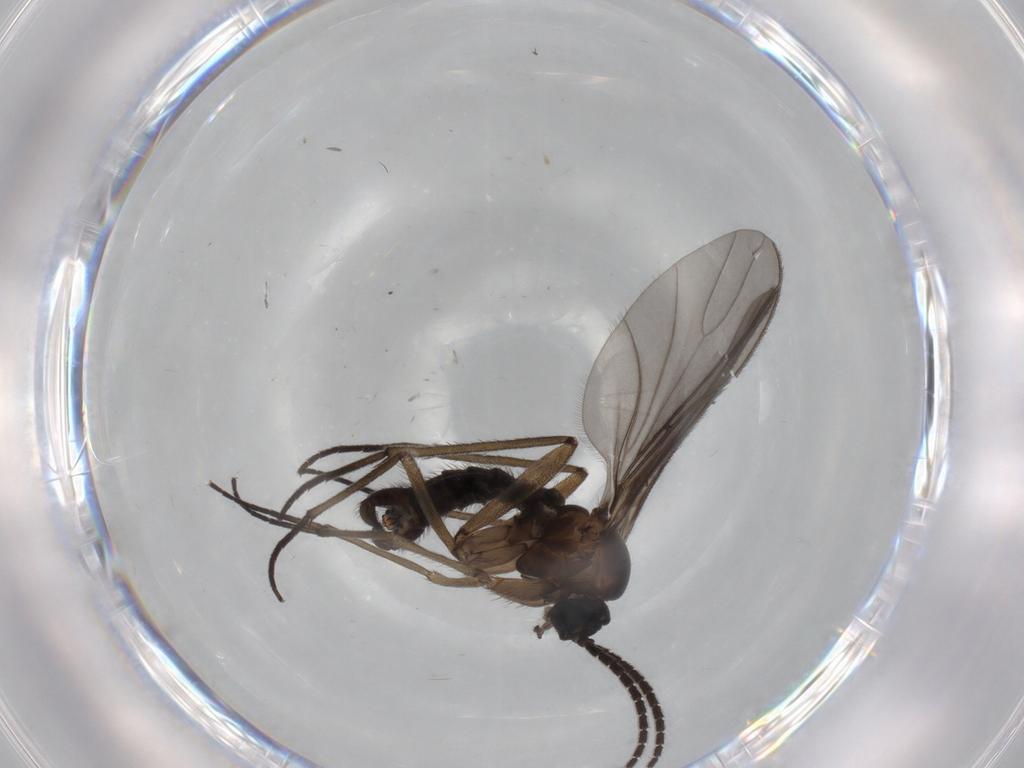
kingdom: Animalia
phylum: Arthropoda
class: Insecta
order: Diptera
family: Sciaridae
